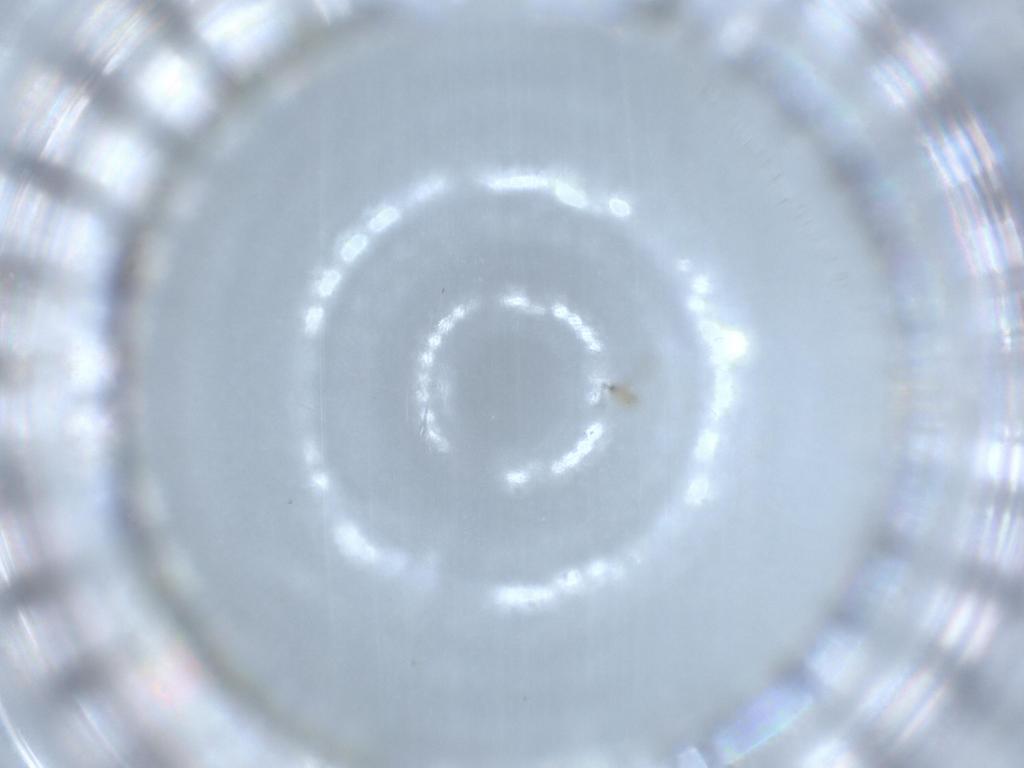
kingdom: Animalia
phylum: Arthropoda
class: Insecta
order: Hymenoptera
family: Mymaridae
